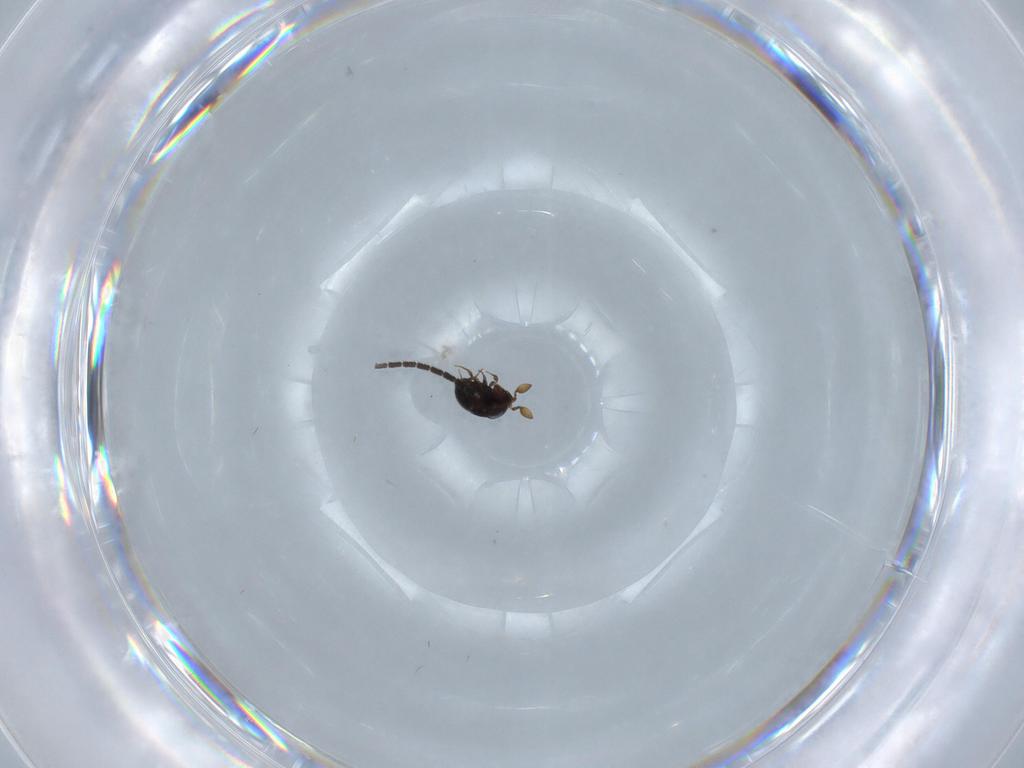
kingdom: Animalia
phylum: Arthropoda
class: Insecta
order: Hymenoptera
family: Scelionidae
